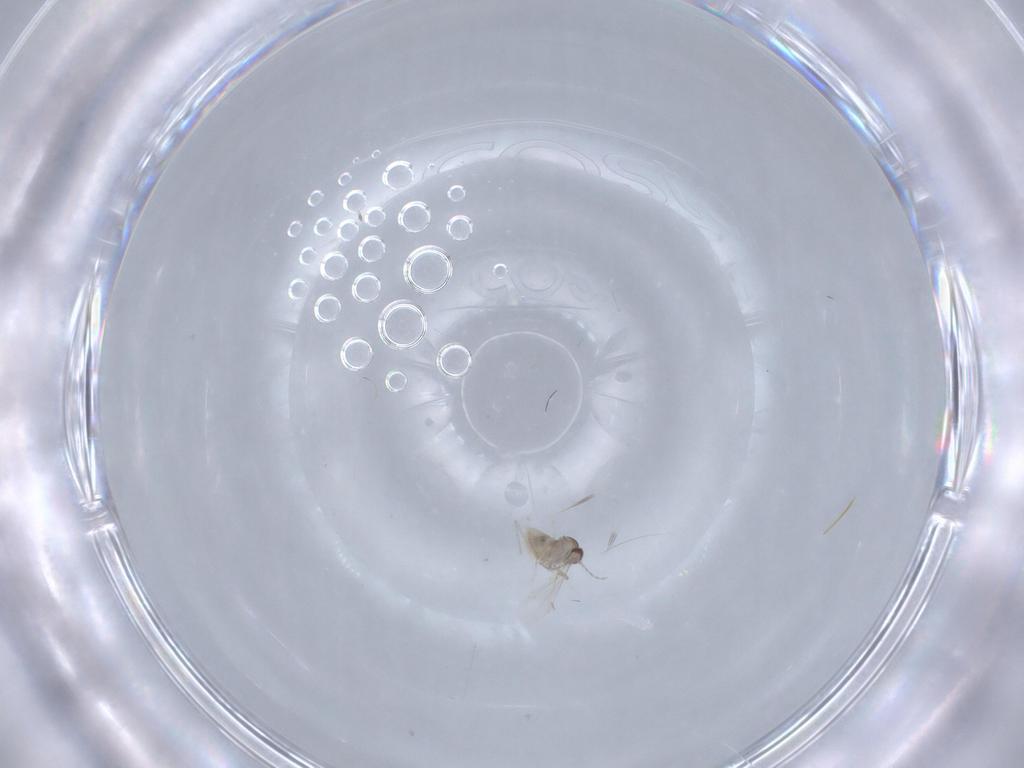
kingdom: Animalia
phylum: Arthropoda
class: Insecta
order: Diptera
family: Cecidomyiidae
